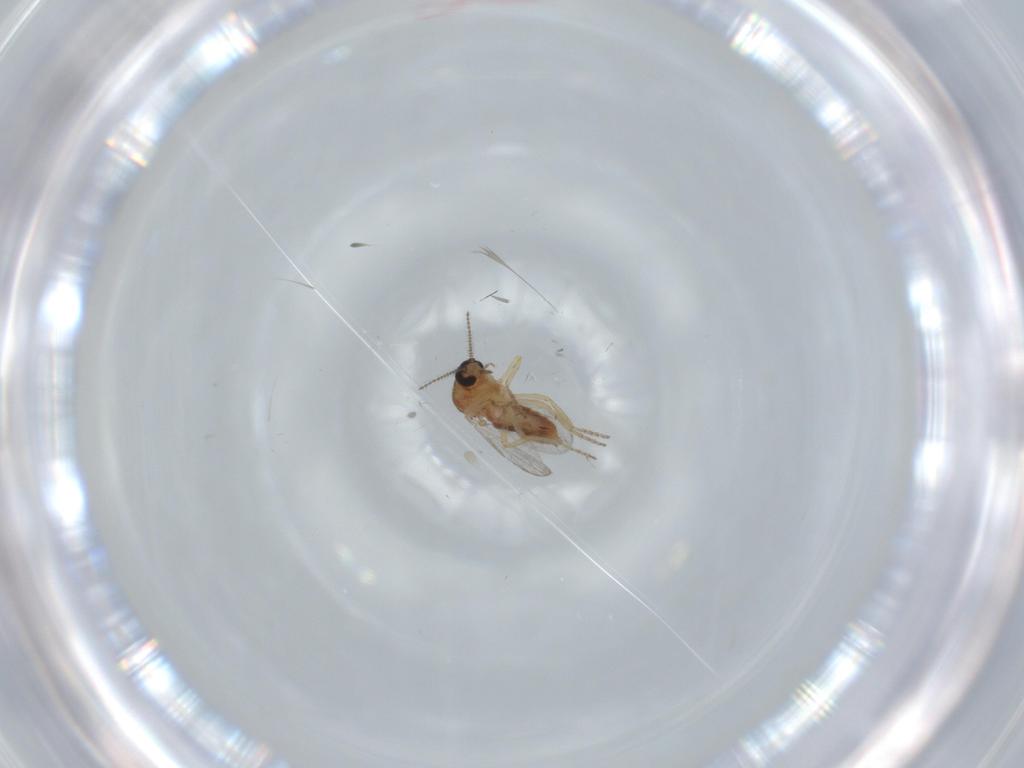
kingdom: Animalia
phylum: Arthropoda
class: Insecta
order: Diptera
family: Ceratopogonidae
